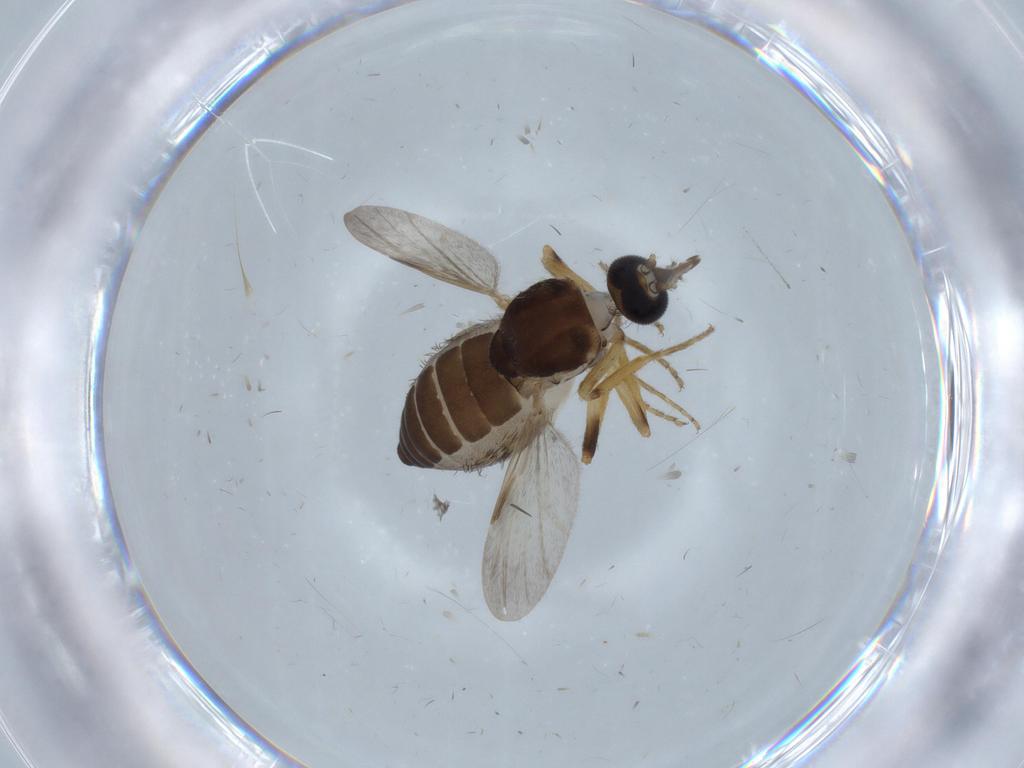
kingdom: Animalia
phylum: Arthropoda
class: Insecta
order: Diptera
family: Ceratopogonidae
